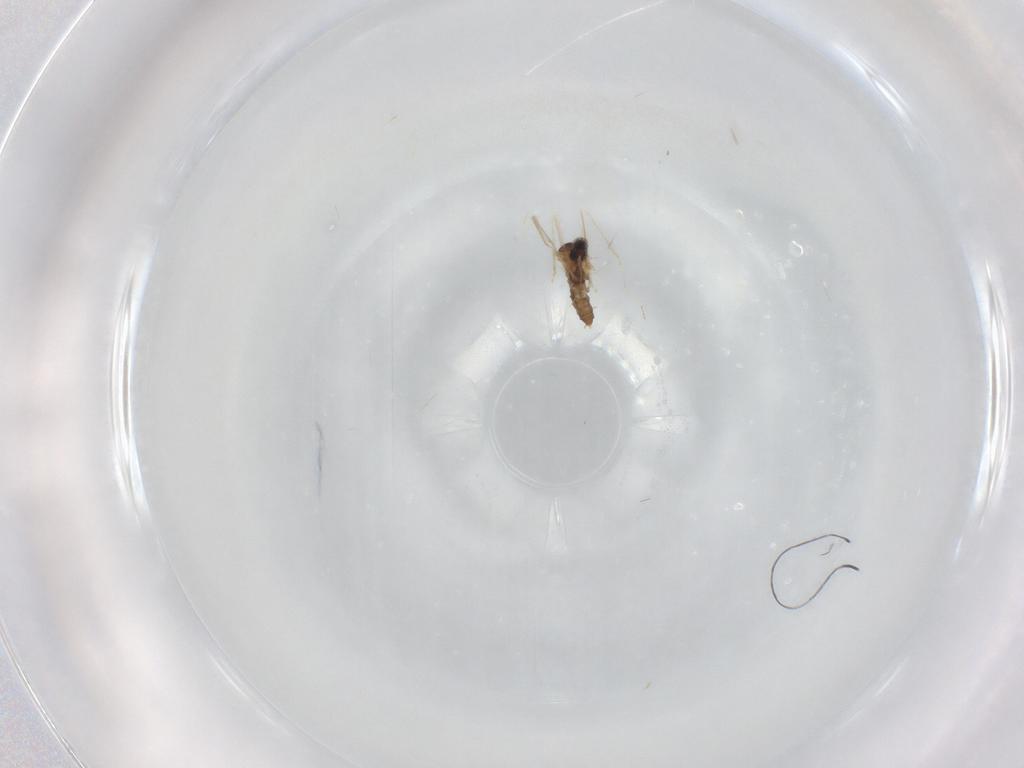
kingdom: Animalia
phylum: Arthropoda
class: Insecta
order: Diptera
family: Cecidomyiidae
